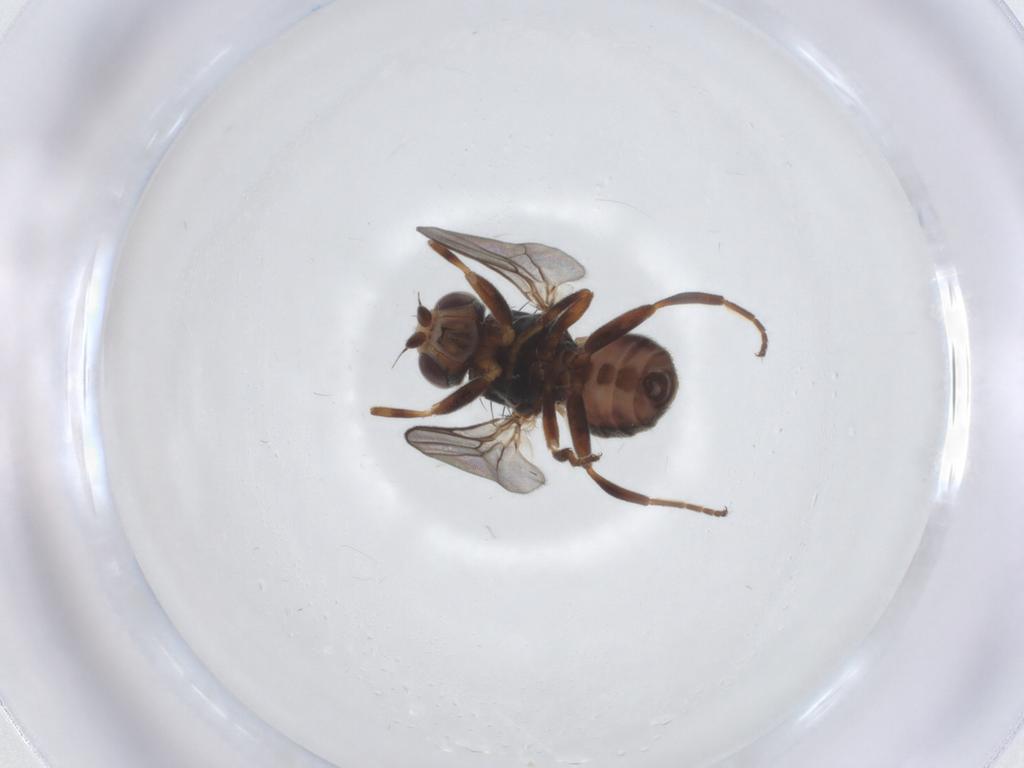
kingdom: Animalia
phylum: Arthropoda
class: Insecta
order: Diptera
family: Chloropidae
